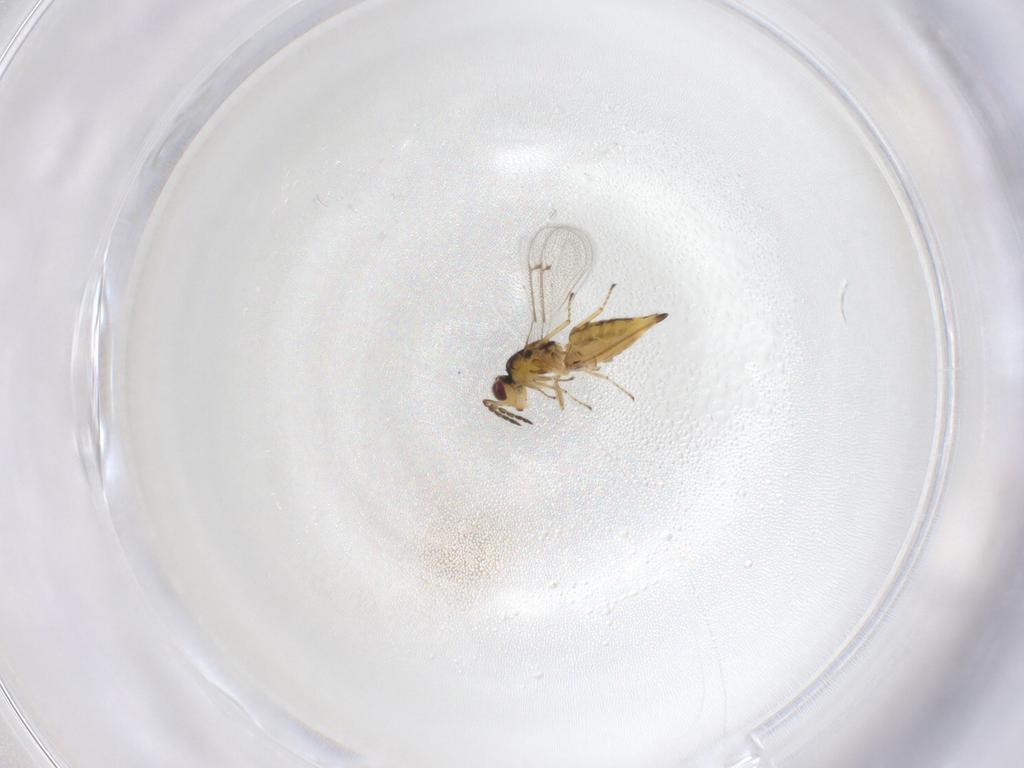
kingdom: Animalia
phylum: Arthropoda
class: Insecta
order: Hymenoptera
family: Eulophidae
